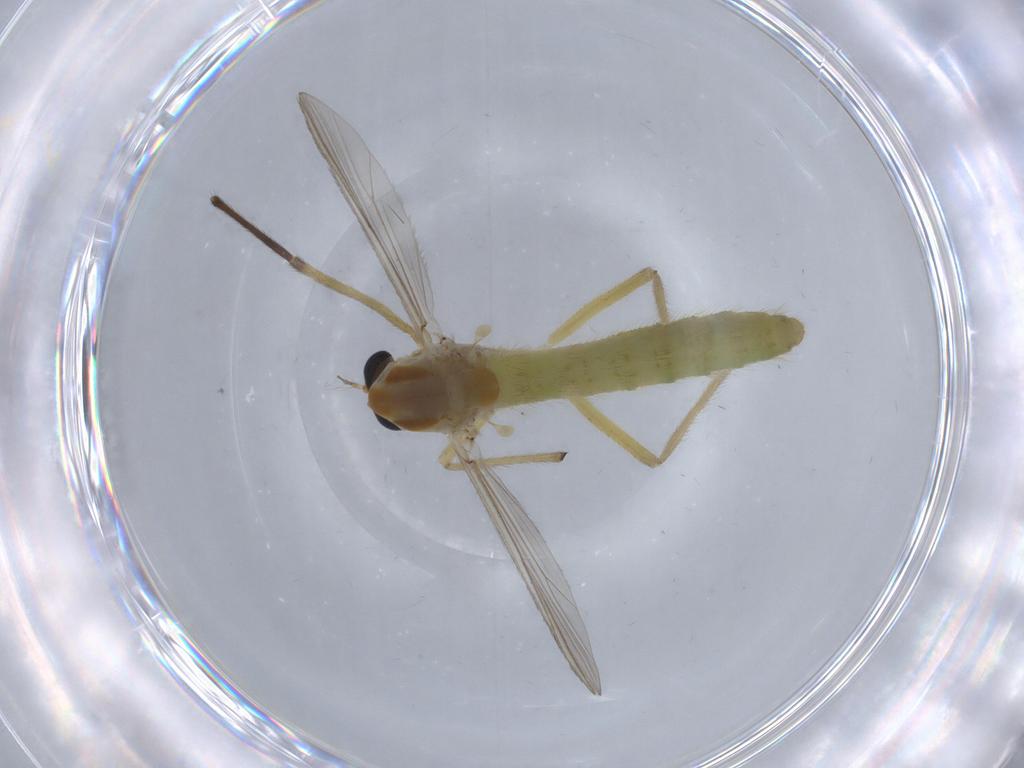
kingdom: Animalia
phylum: Arthropoda
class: Insecta
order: Diptera
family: Chironomidae
